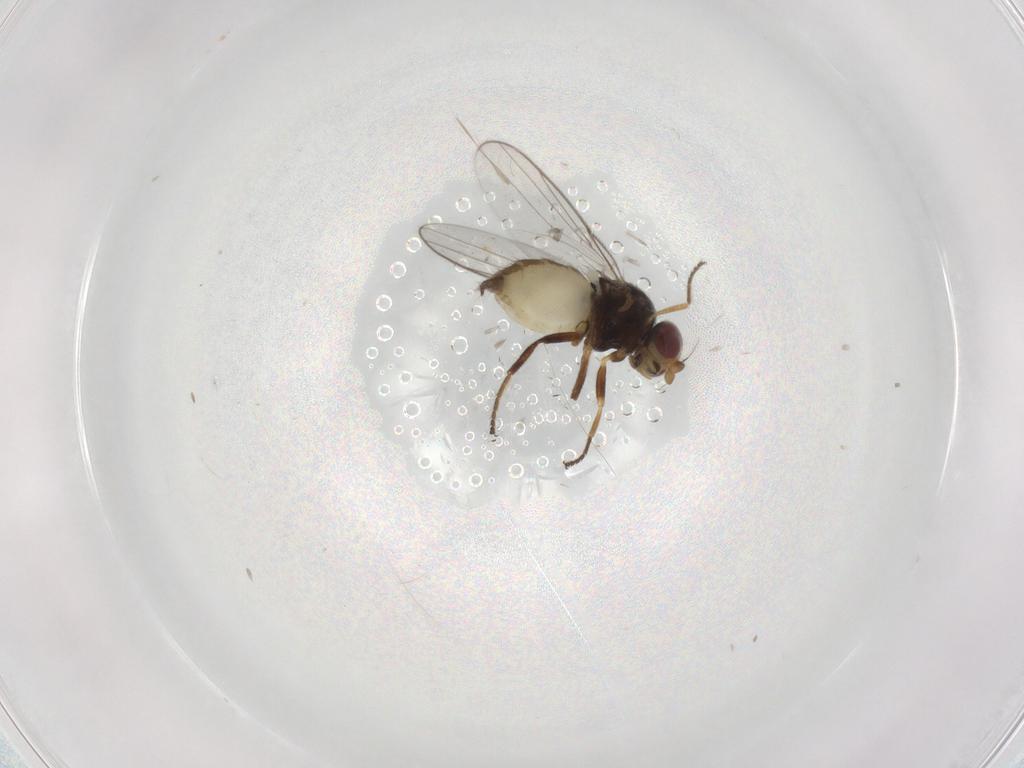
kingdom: Animalia
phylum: Arthropoda
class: Insecta
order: Diptera
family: Chloropidae
